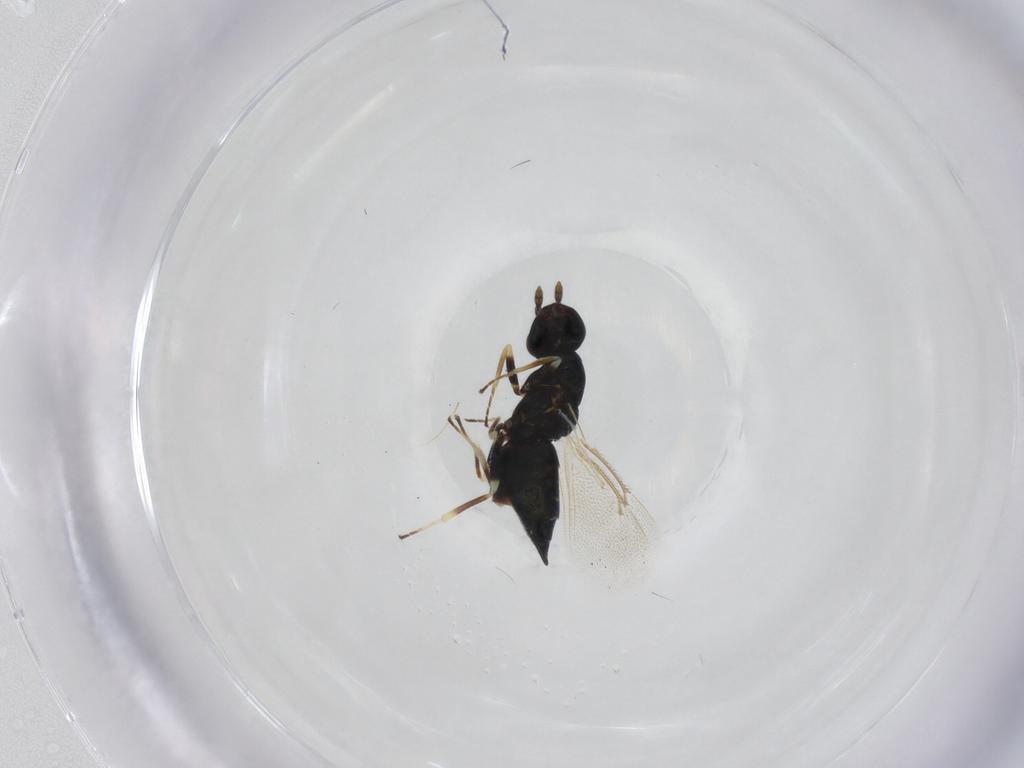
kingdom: Animalia
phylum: Arthropoda
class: Insecta
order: Hymenoptera
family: Eulophidae
